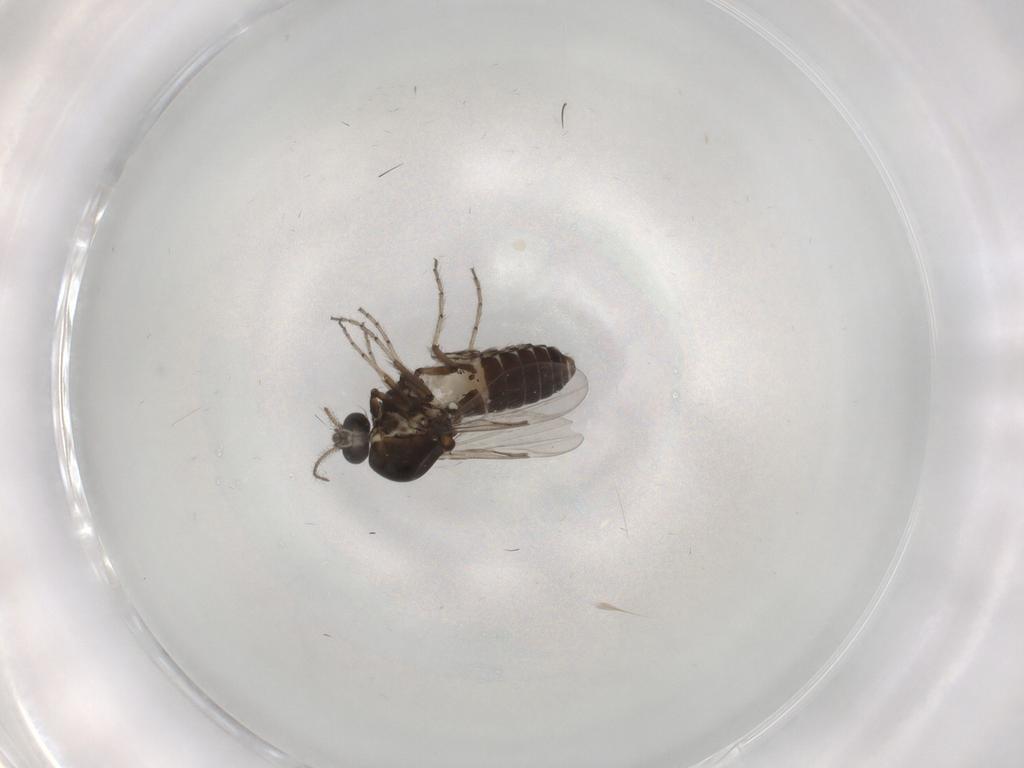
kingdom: Animalia
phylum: Arthropoda
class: Insecta
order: Diptera
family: Ceratopogonidae
